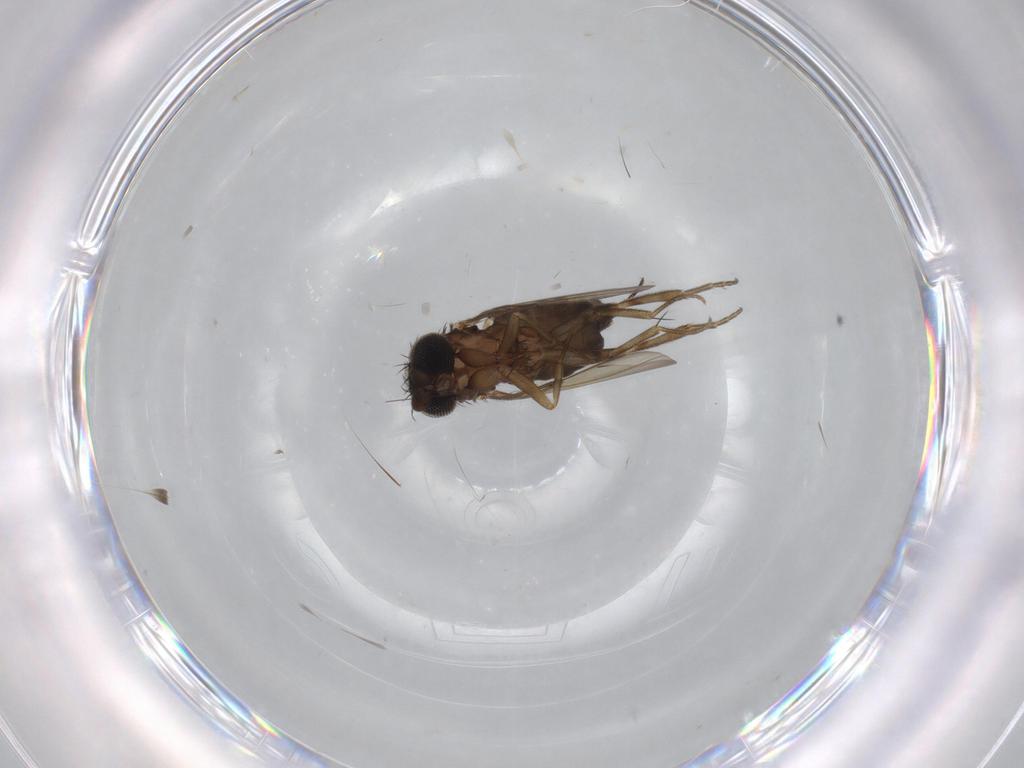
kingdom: Animalia
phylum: Arthropoda
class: Insecta
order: Diptera
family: Phoridae
